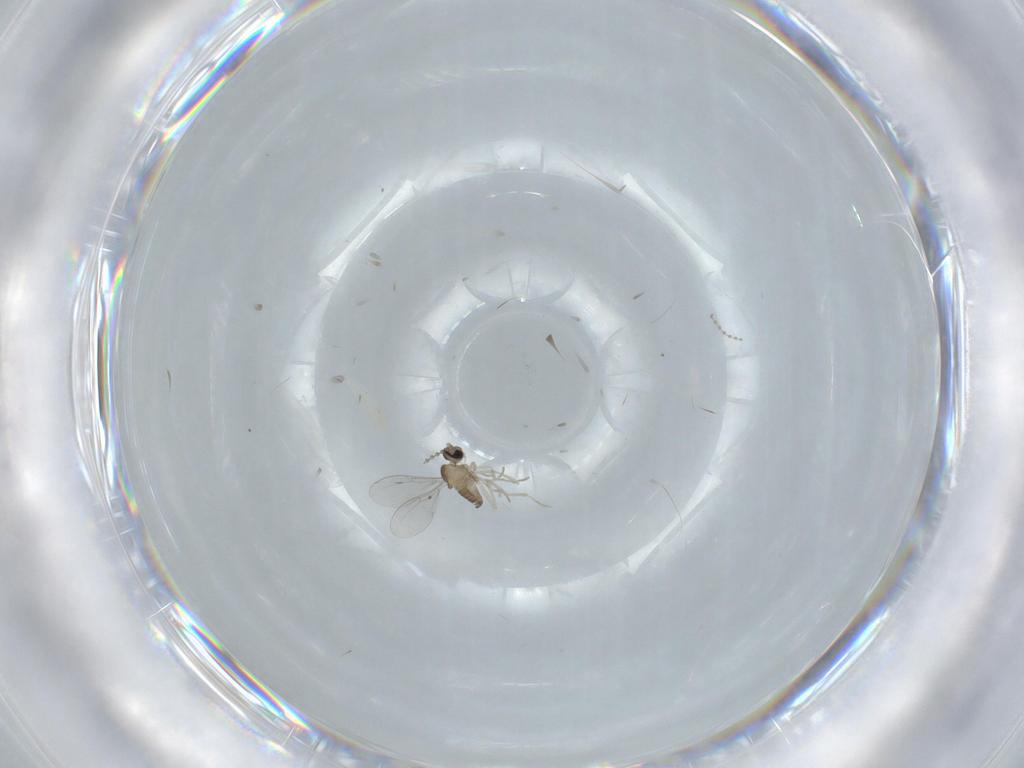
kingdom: Animalia
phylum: Arthropoda
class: Insecta
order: Diptera
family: Cecidomyiidae
